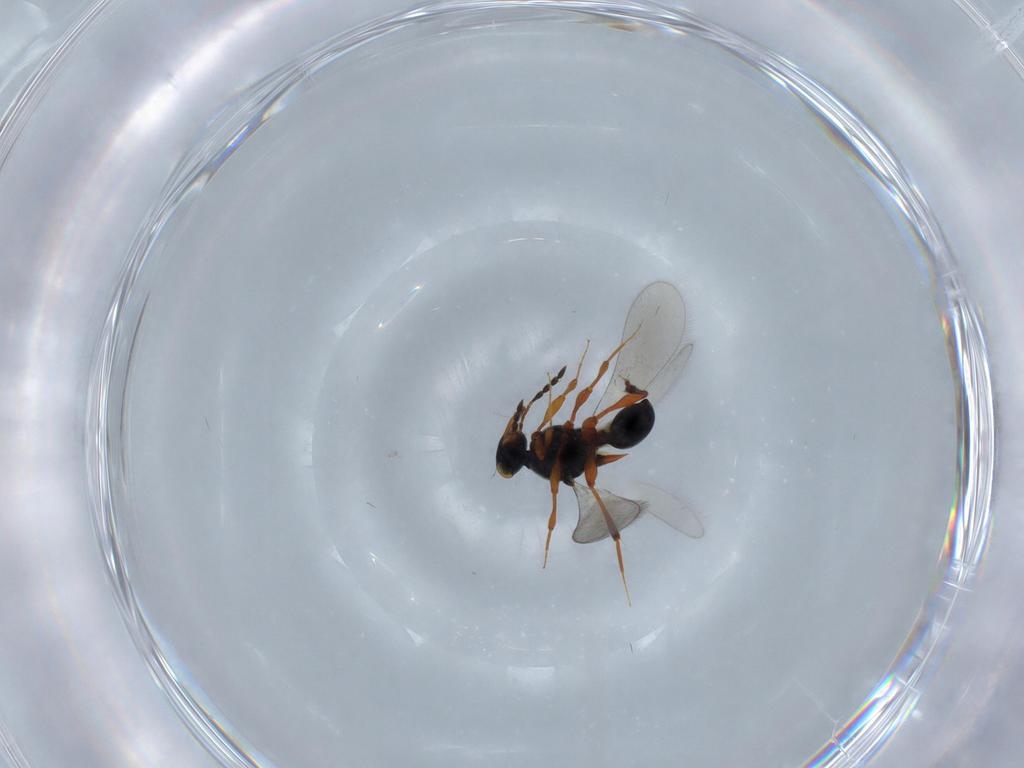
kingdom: Animalia
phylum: Arthropoda
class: Insecta
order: Hymenoptera
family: Platygastridae
